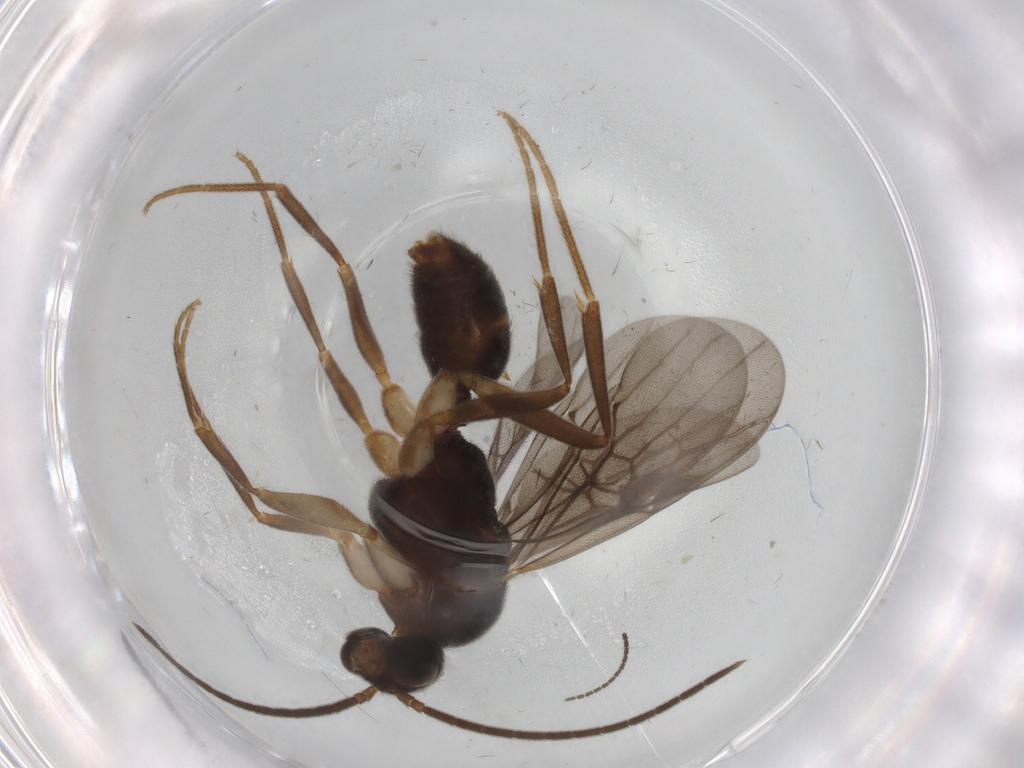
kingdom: Animalia
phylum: Arthropoda
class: Insecta
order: Hymenoptera
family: Formicidae
